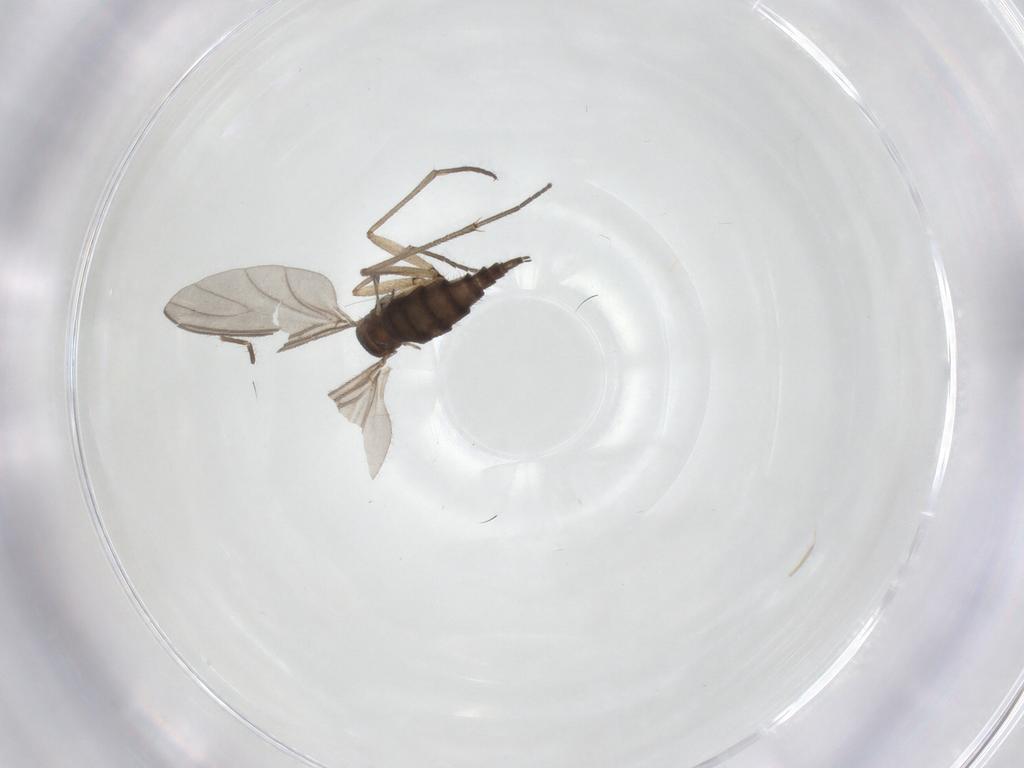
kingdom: Animalia
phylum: Arthropoda
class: Insecta
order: Diptera
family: Sciaridae
